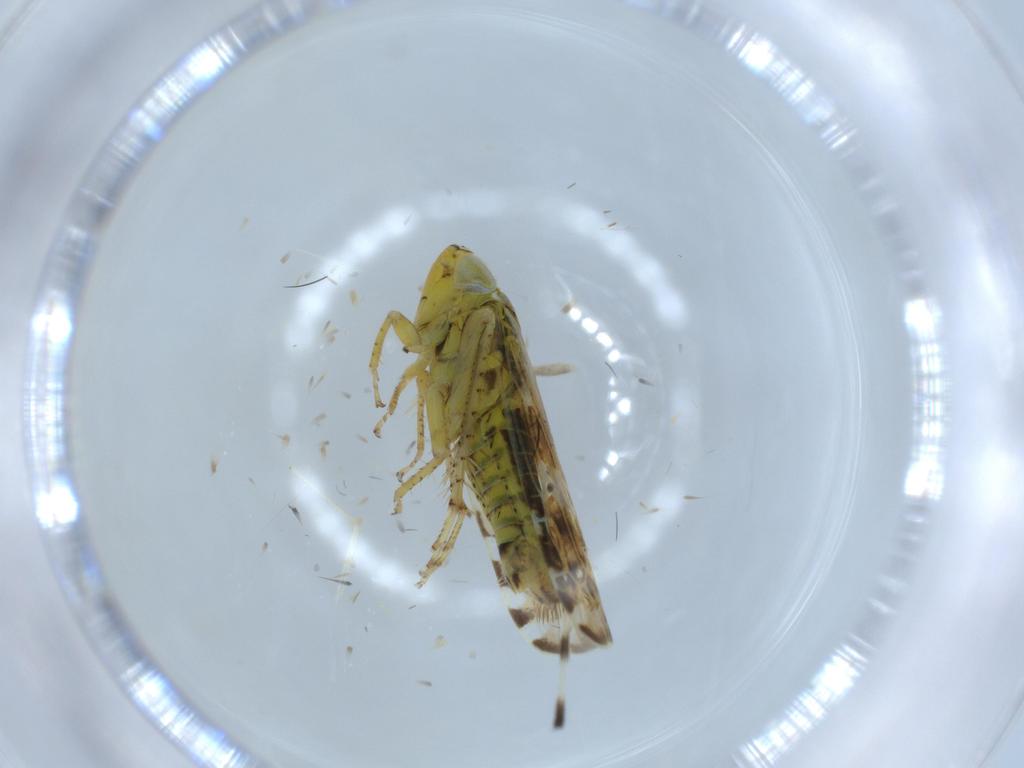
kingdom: Animalia
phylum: Arthropoda
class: Insecta
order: Hemiptera
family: Cicadellidae
